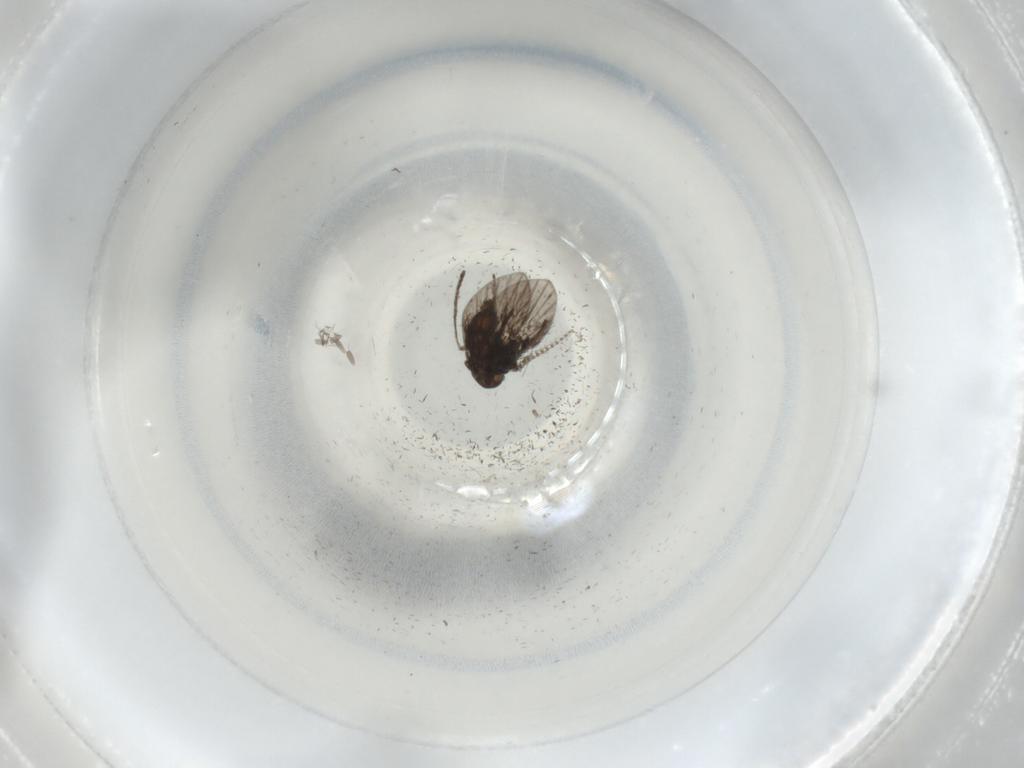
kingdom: Animalia
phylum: Arthropoda
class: Insecta
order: Diptera
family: Psychodidae
